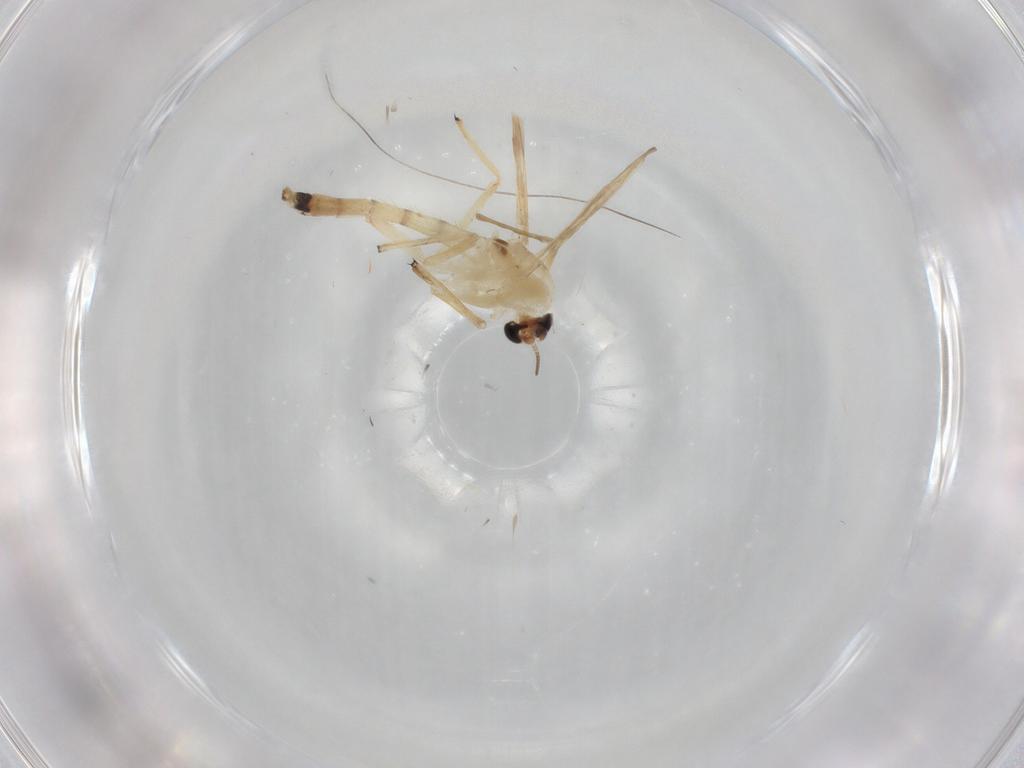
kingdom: Animalia
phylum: Arthropoda
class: Insecta
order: Diptera
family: Chironomidae
